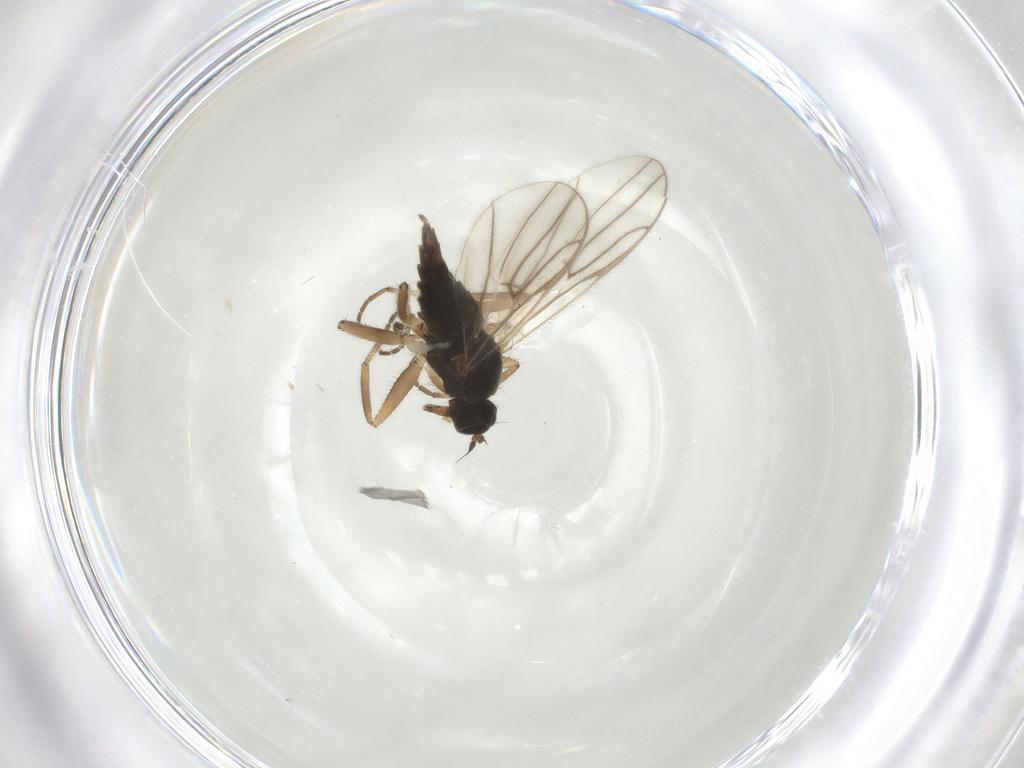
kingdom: Animalia
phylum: Arthropoda
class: Insecta
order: Diptera
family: Hybotidae
